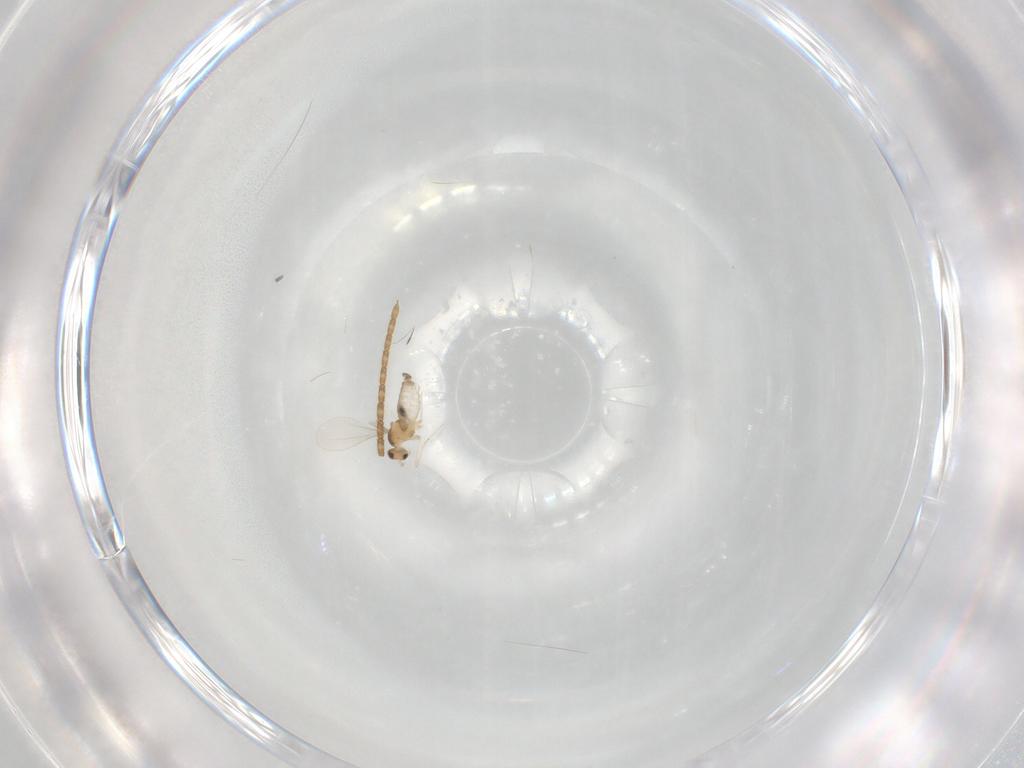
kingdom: Animalia
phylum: Arthropoda
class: Insecta
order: Diptera
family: Cecidomyiidae
